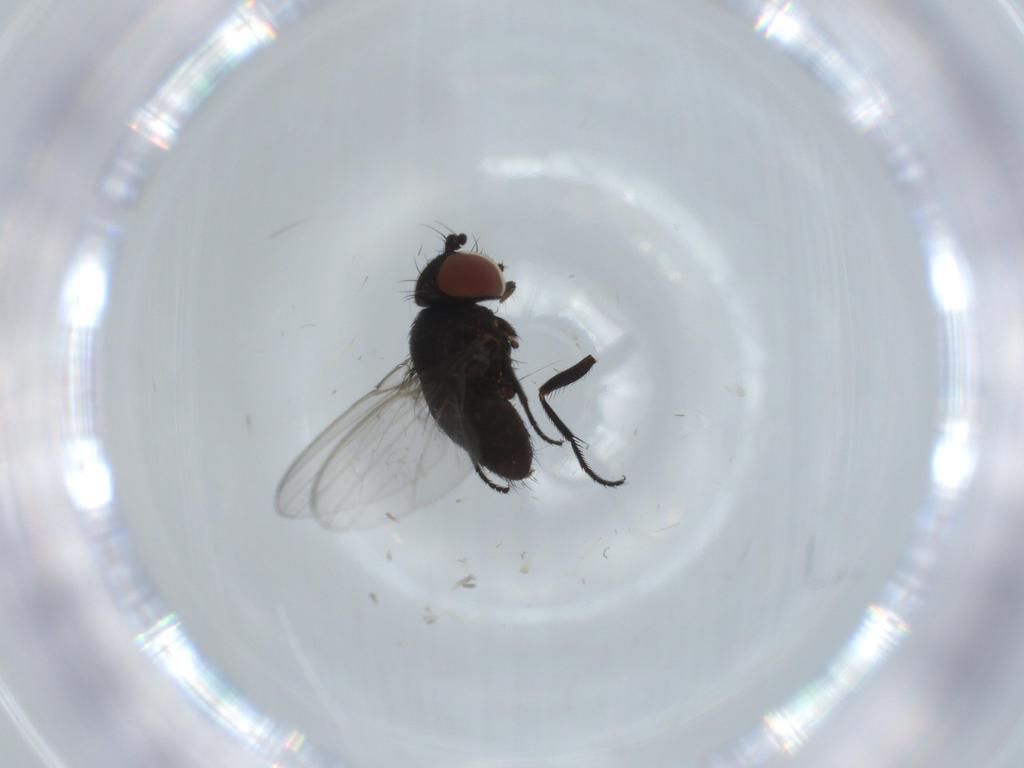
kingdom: Animalia
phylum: Arthropoda
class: Insecta
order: Diptera
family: Milichiidae
